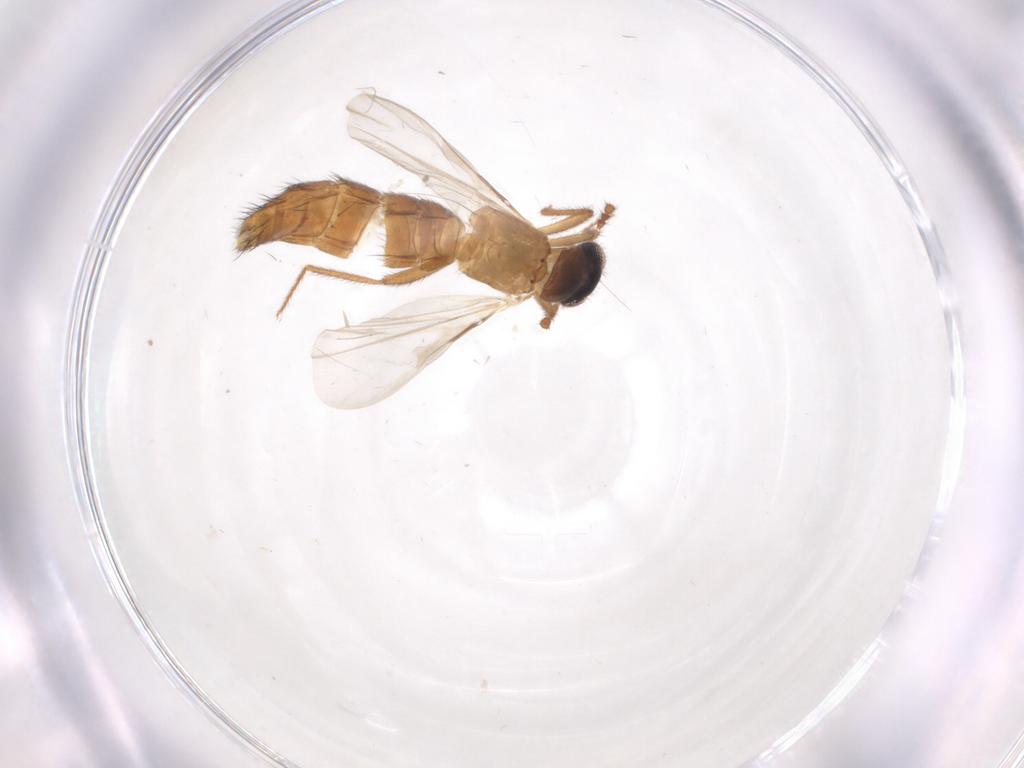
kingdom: Animalia
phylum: Arthropoda
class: Insecta
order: Coleoptera
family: Staphylinidae
